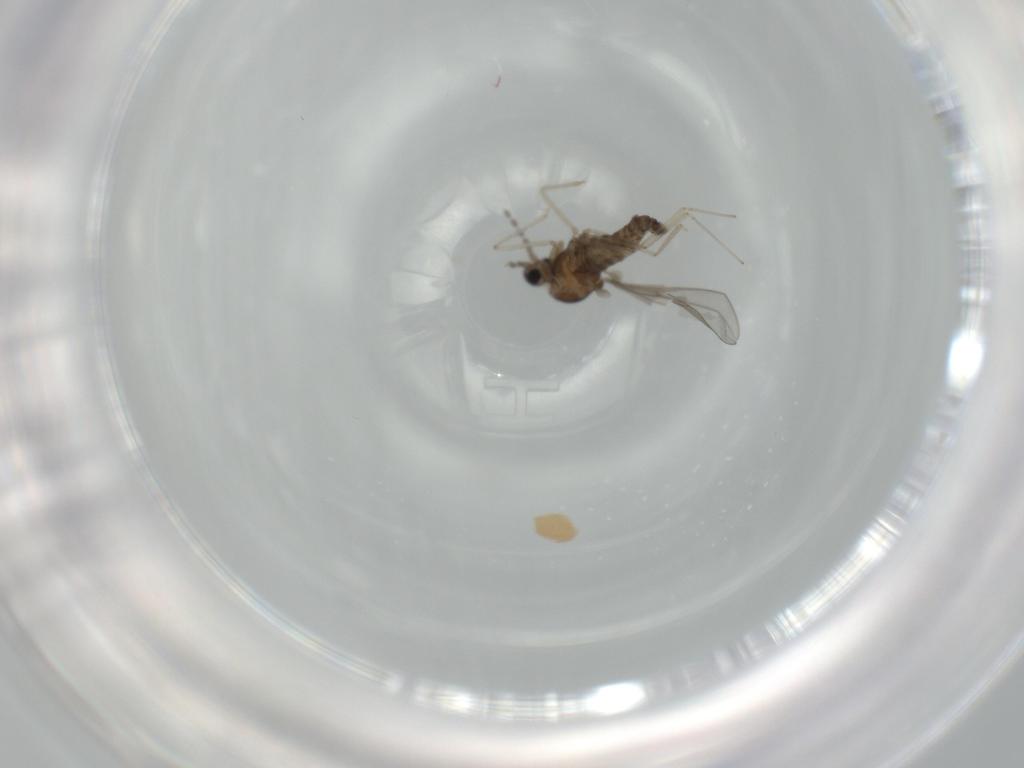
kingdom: Animalia
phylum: Arthropoda
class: Insecta
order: Diptera
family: Cecidomyiidae
